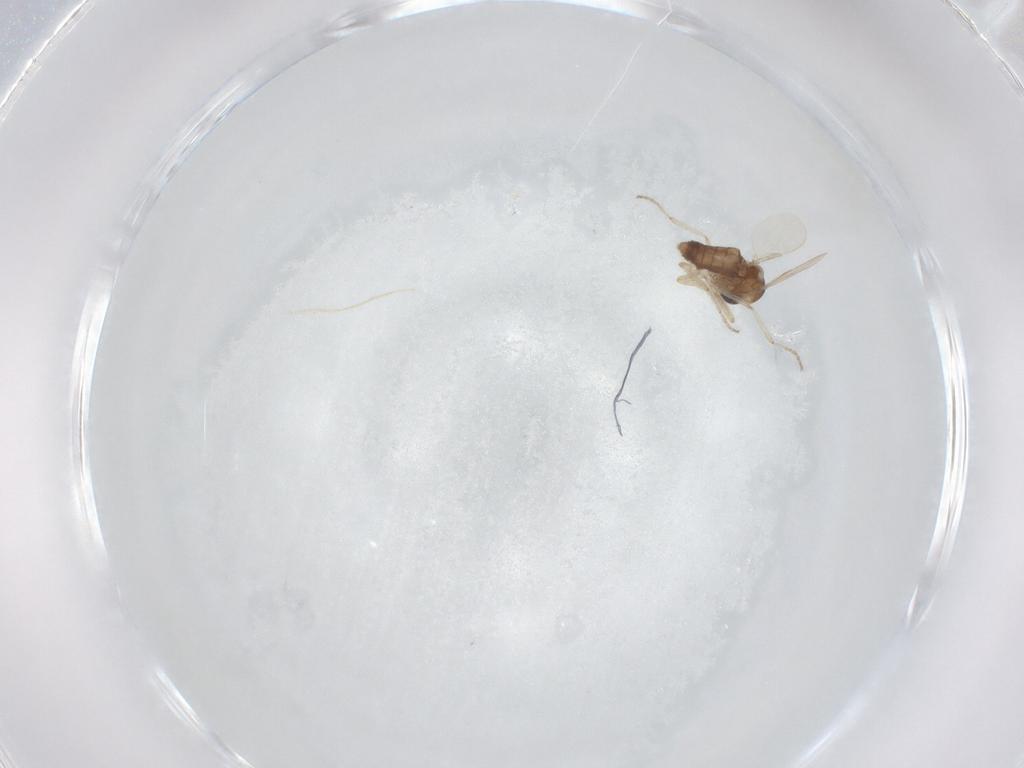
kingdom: Animalia
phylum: Arthropoda
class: Insecta
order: Diptera
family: Ceratopogonidae
